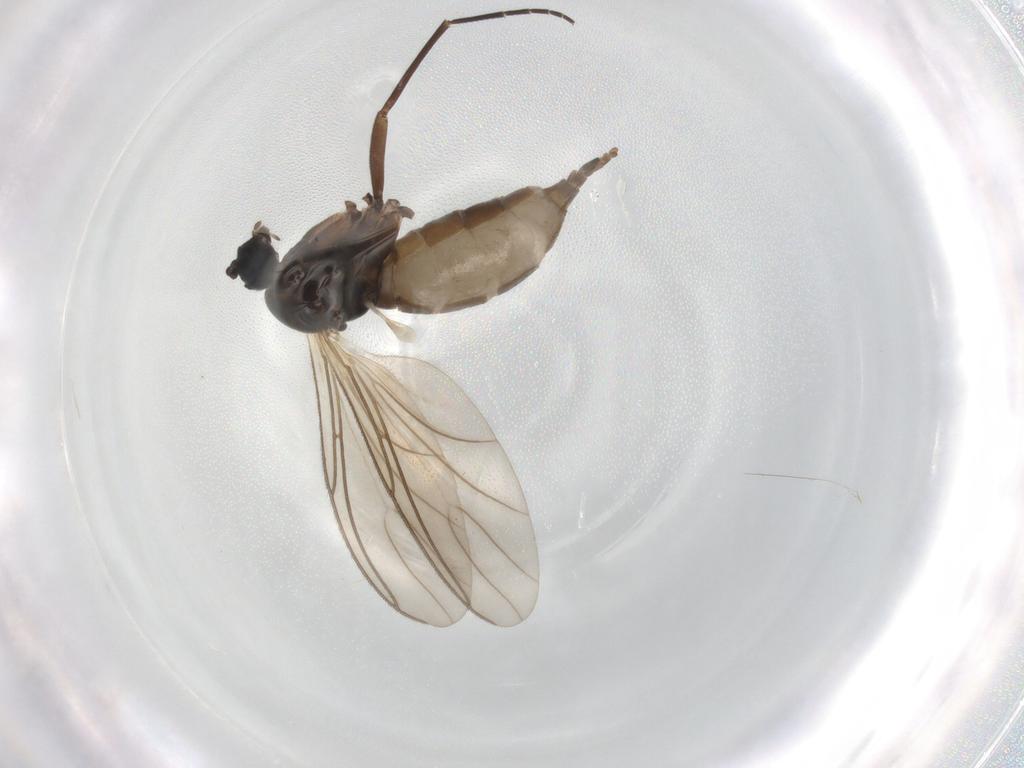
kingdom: Animalia
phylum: Arthropoda
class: Insecta
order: Diptera
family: Sciaridae
